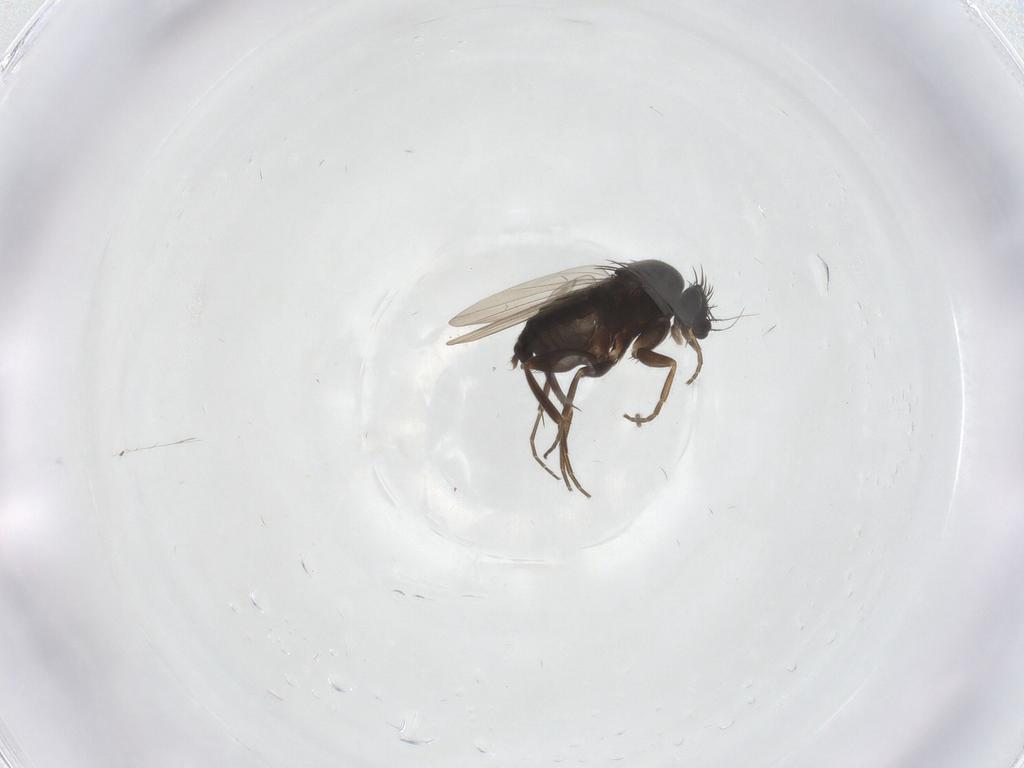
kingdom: Animalia
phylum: Arthropoda
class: Insecta
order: Diptera
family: Phoridae
